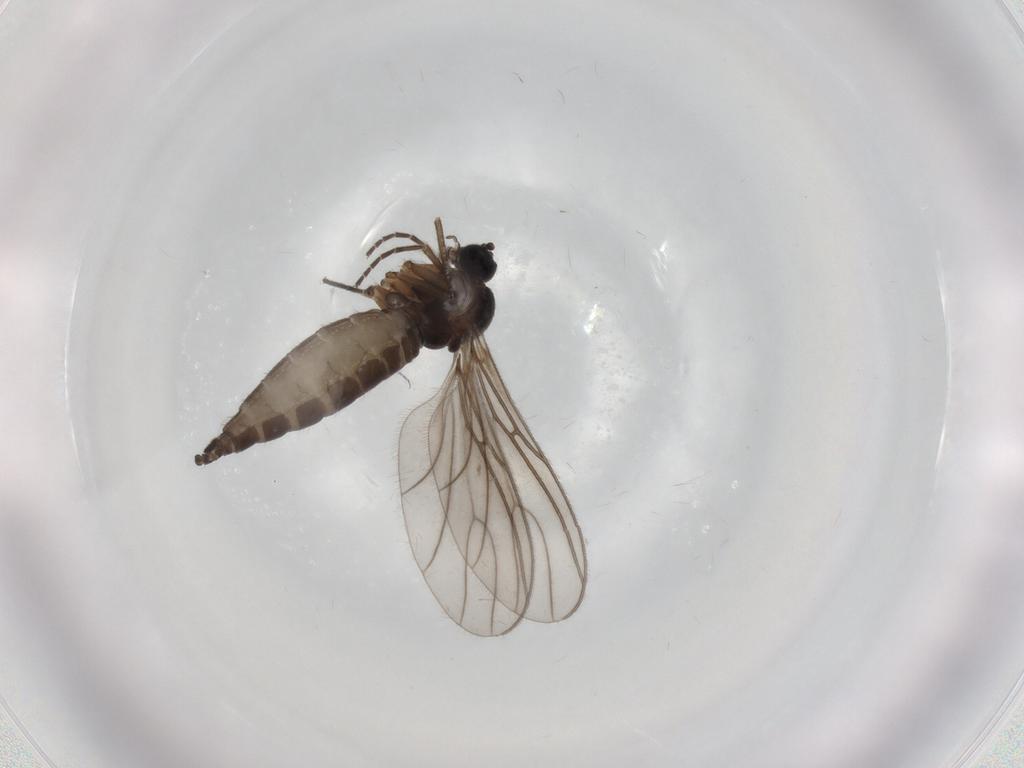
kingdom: Animalia
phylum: Arthropoda
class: Insecta
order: Diptera
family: Sciaridae
